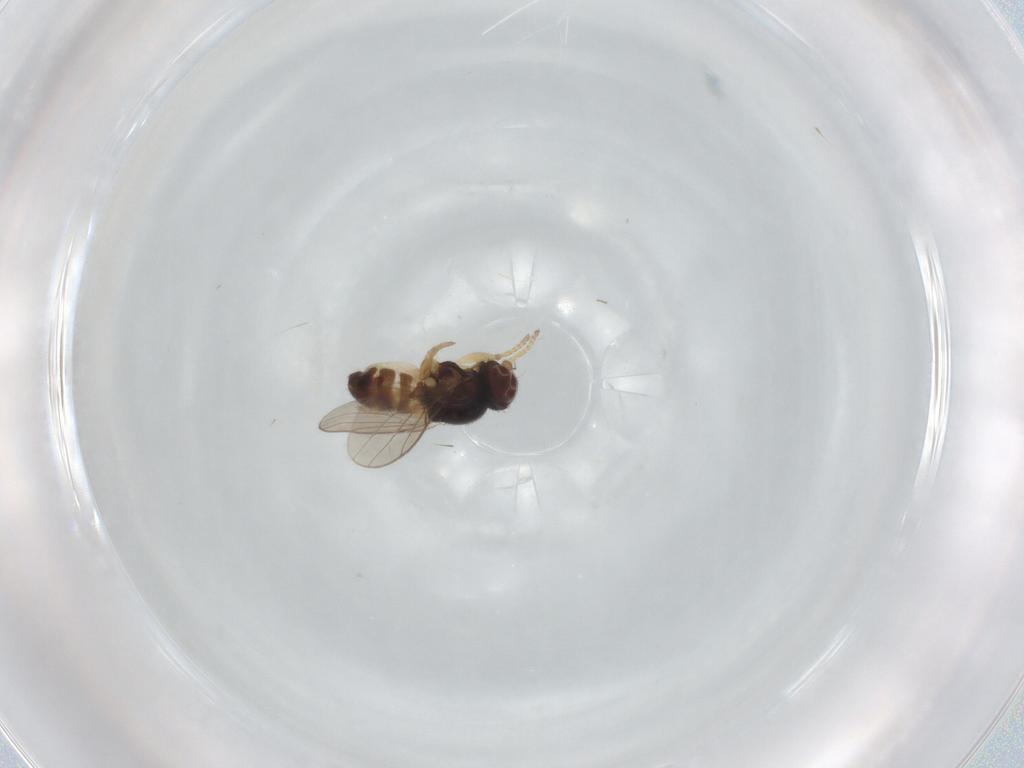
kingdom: Animalia
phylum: Arthropoda
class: Insecta
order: Diptera
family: Chloropidae
